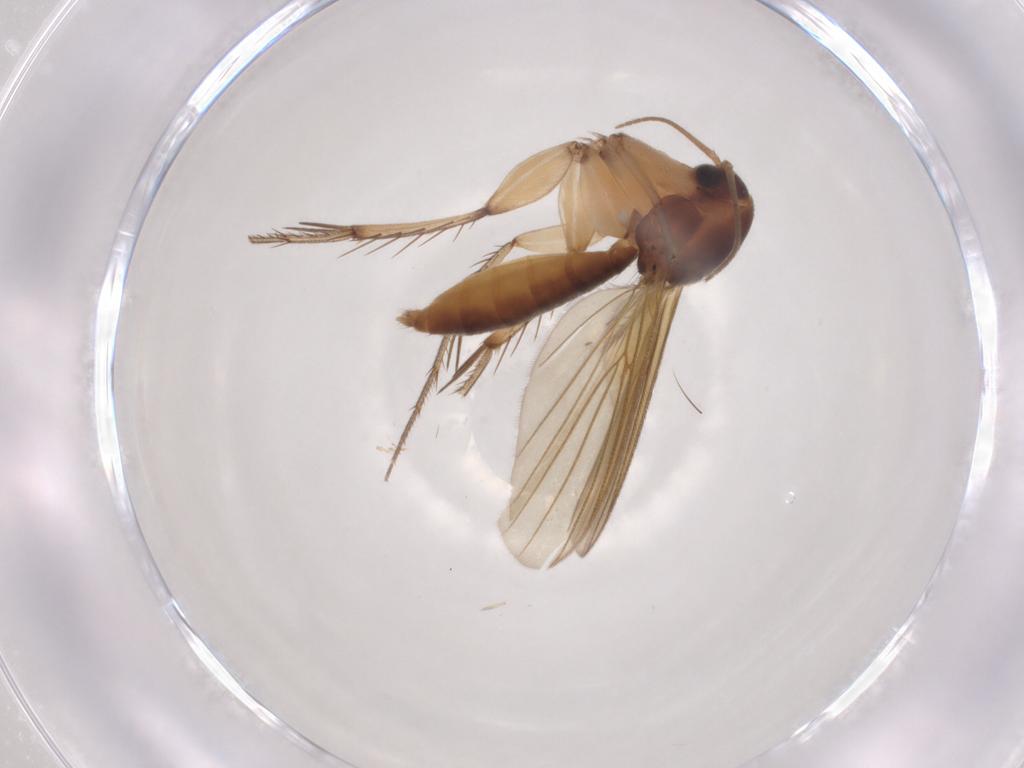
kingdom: Animalia
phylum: Arthropoda
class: Insecta
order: Diptera
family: Mycetophilidae
